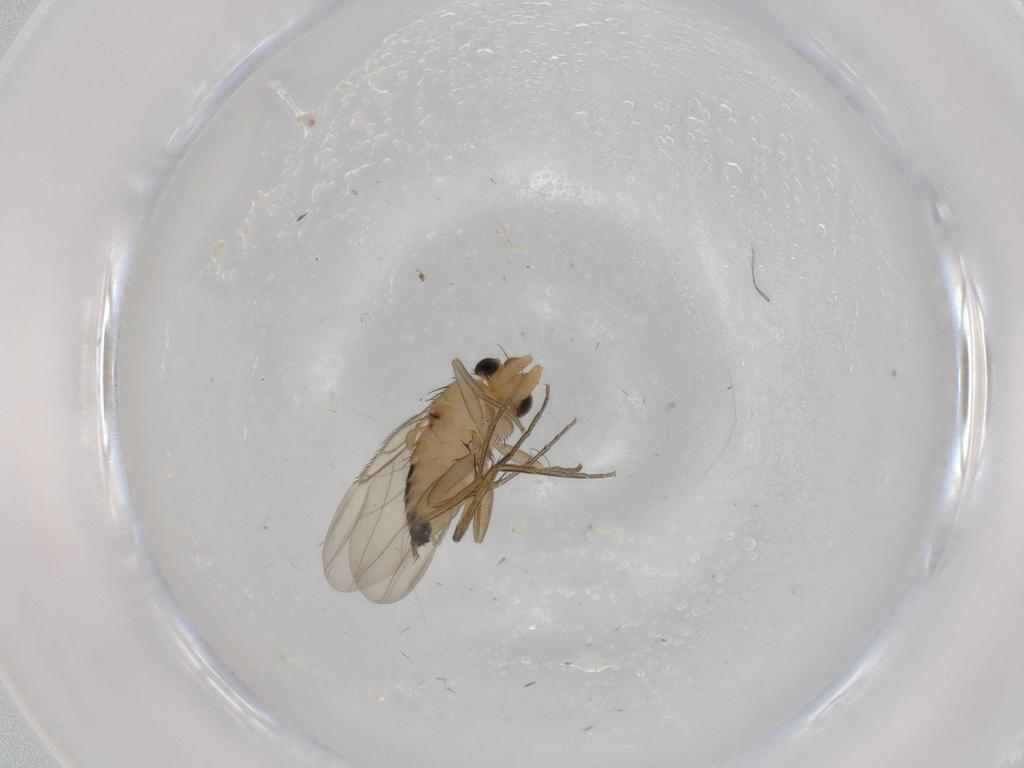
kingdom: Animalia
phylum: Arthropoda
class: Insecta
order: Diptera
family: Phoridae
